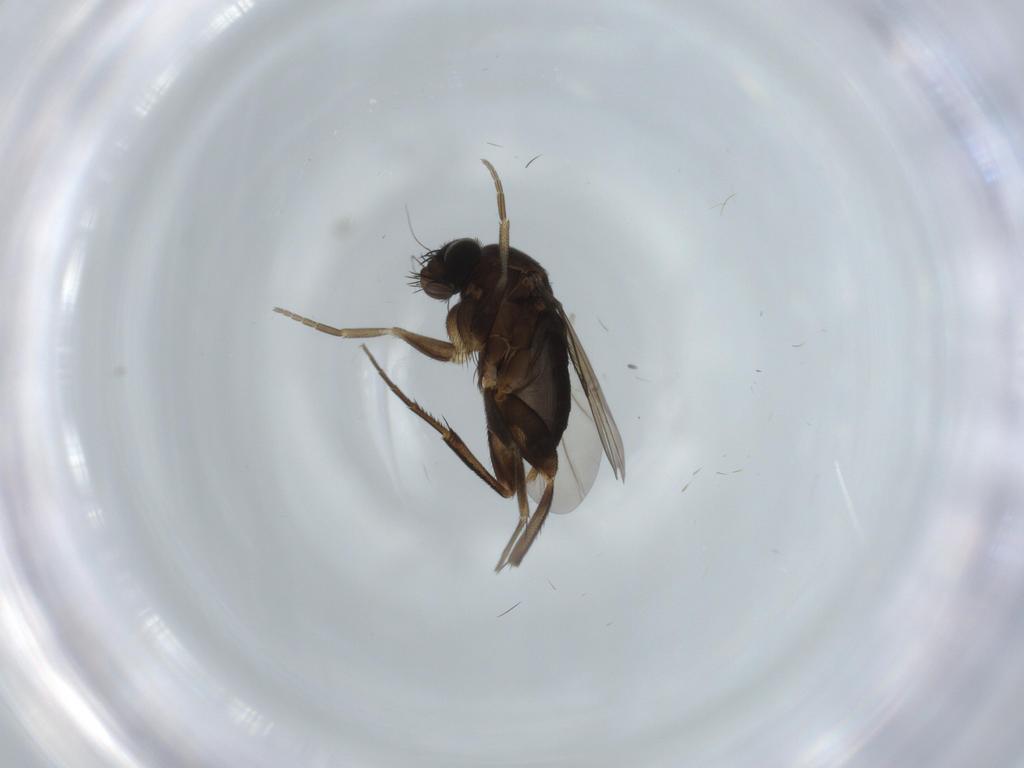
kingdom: Animalia
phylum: Arthropoda
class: Insecta
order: Diptera
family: Phoridae
